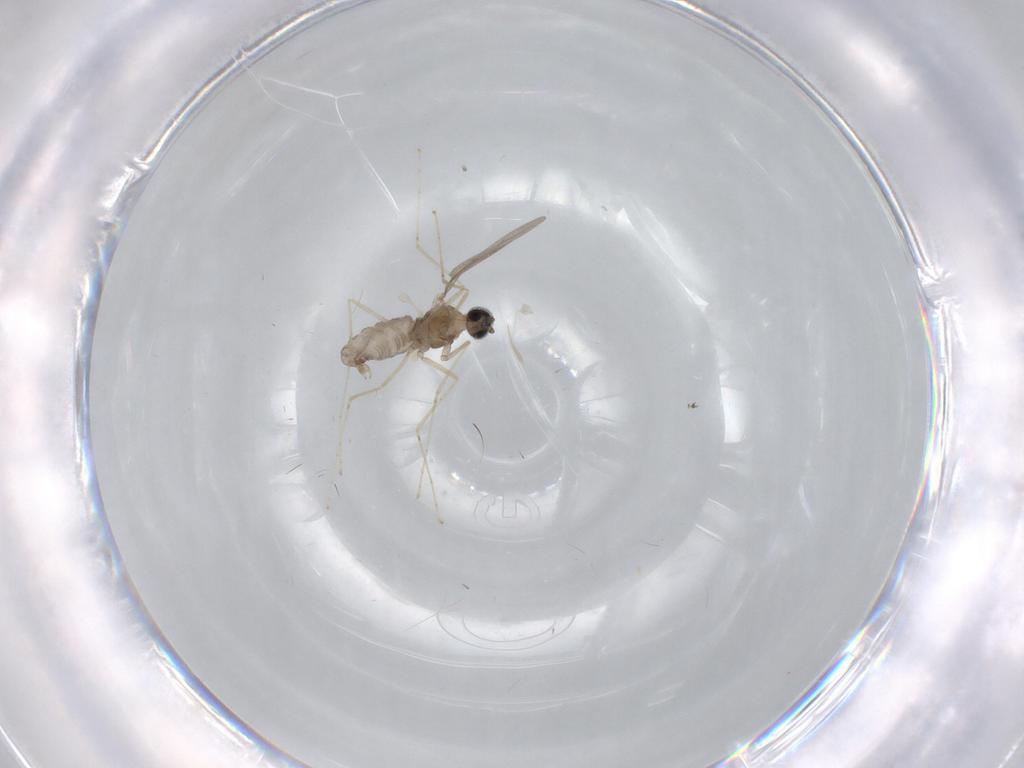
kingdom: Animalia
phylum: Arthropoda
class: Insecta
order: Diptera
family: Cecidomyiidae
